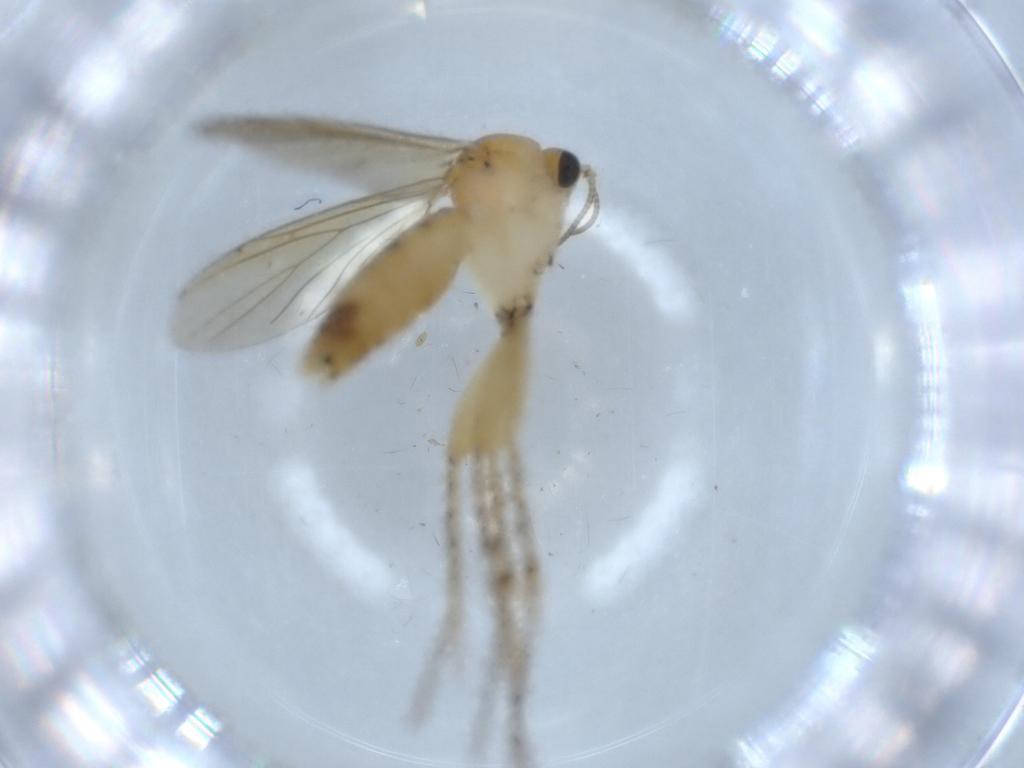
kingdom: Animalia
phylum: Arthropoda
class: Insecta
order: Diptera
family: Mycetophilidae
